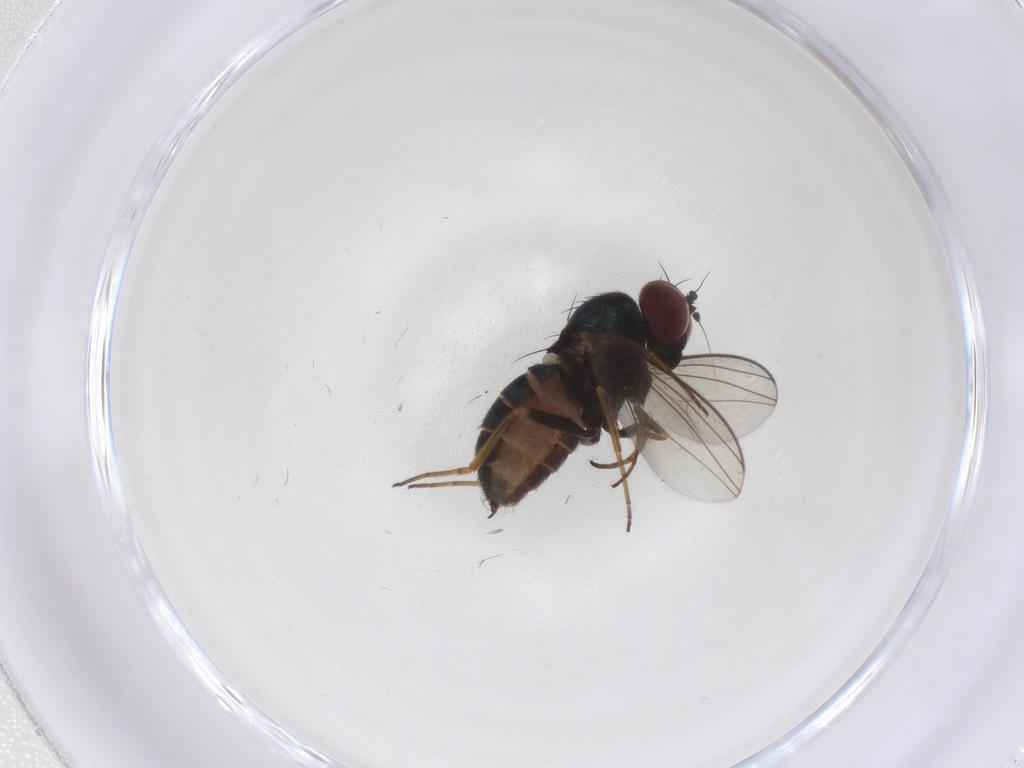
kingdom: Animalia
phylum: Arthropoda
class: Insecta
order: Diptera
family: Dolichopodidae
